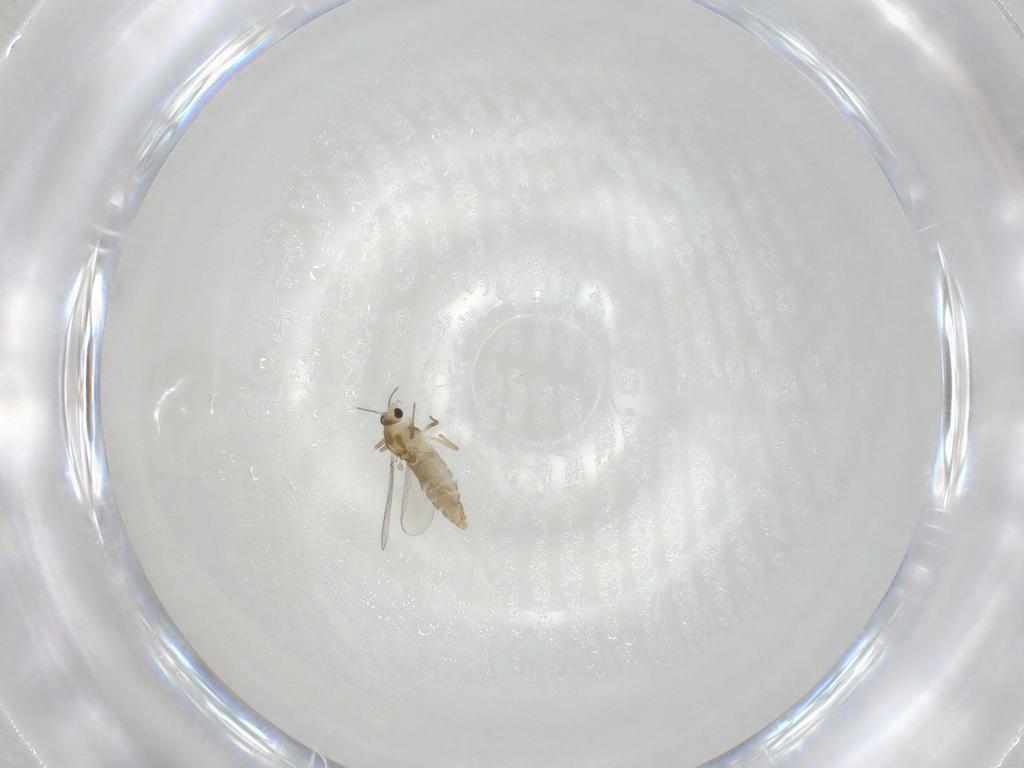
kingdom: Animalia
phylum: Arthropoda
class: Insecta
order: Diptera
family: Chironomidae
